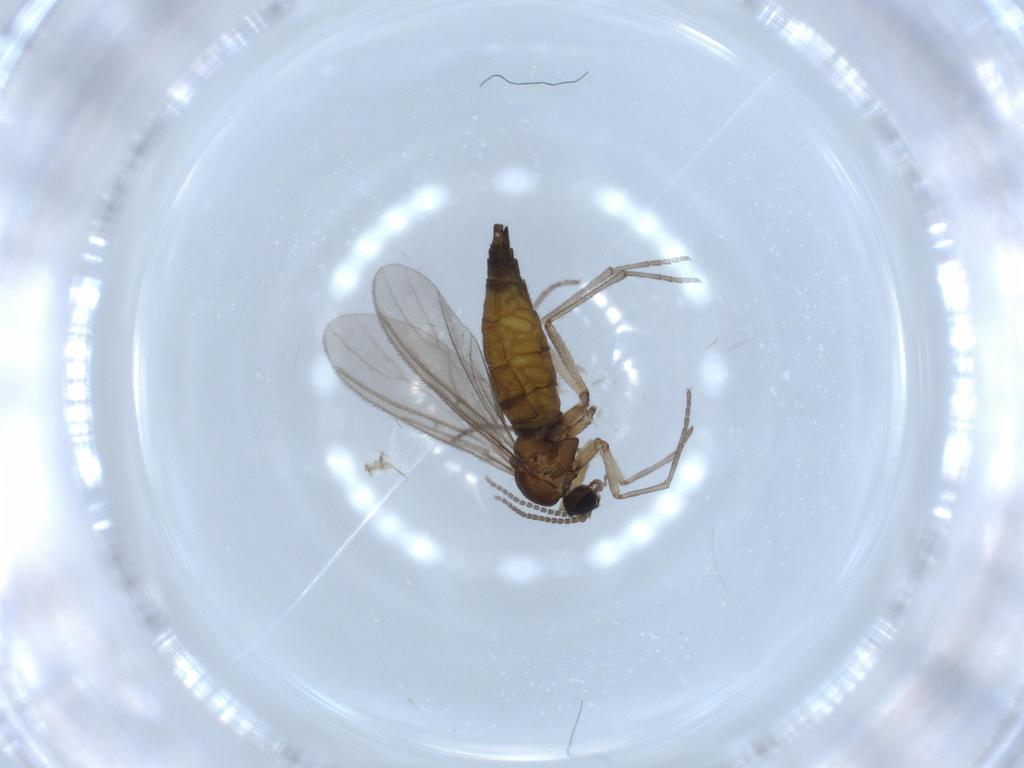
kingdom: Animalia
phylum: Arthropoda
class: Insecta
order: Diptera
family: Sciaridae
